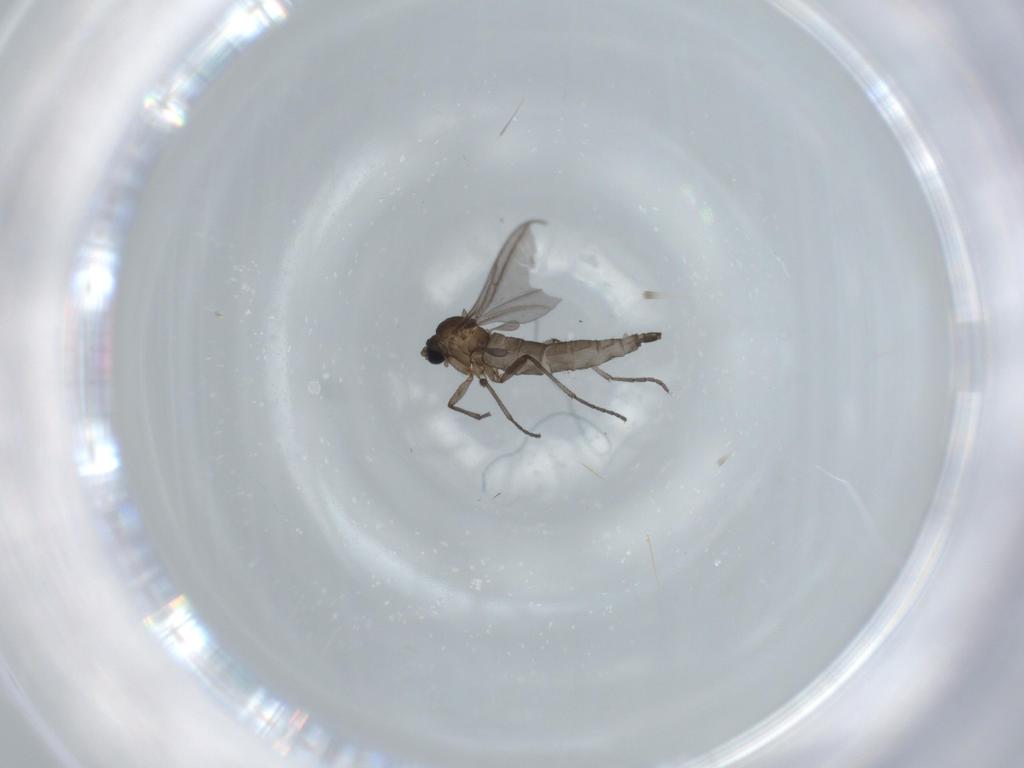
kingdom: Animalia
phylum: Arthropoda
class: Insecta
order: Diptera
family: Sciaridae
